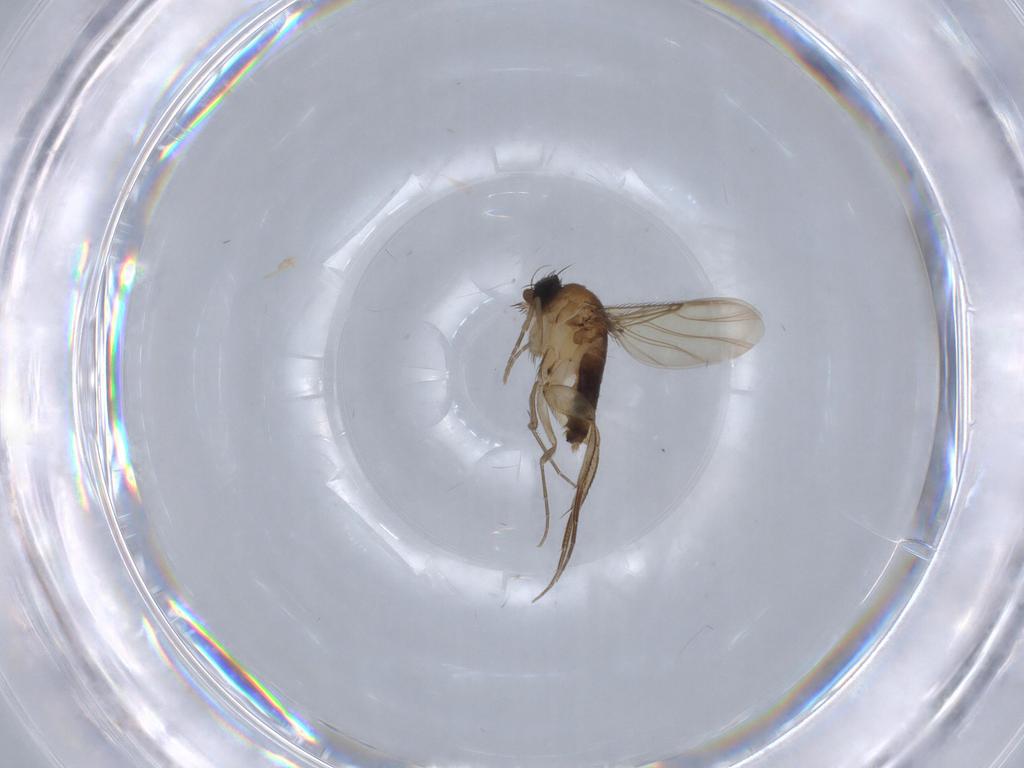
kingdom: Animalia
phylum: Arthropoda
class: Insecta
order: Diptera
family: Phoridae
